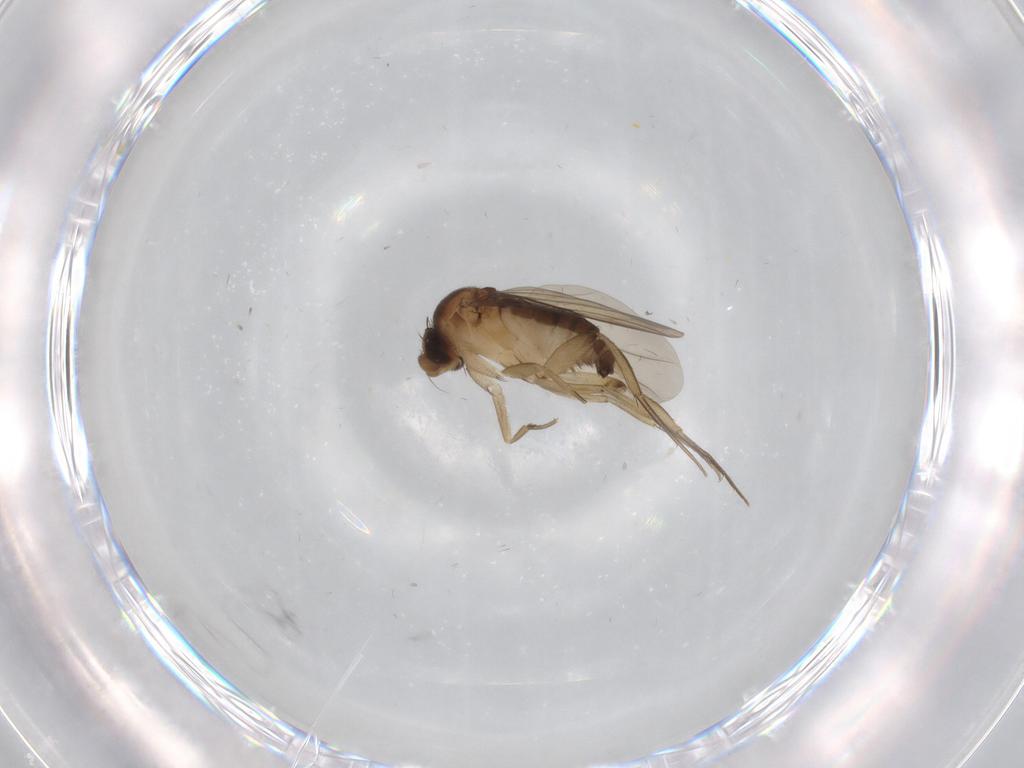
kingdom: Animalia
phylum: Arthropoda
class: Insecta
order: Diptera
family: Phoridae
